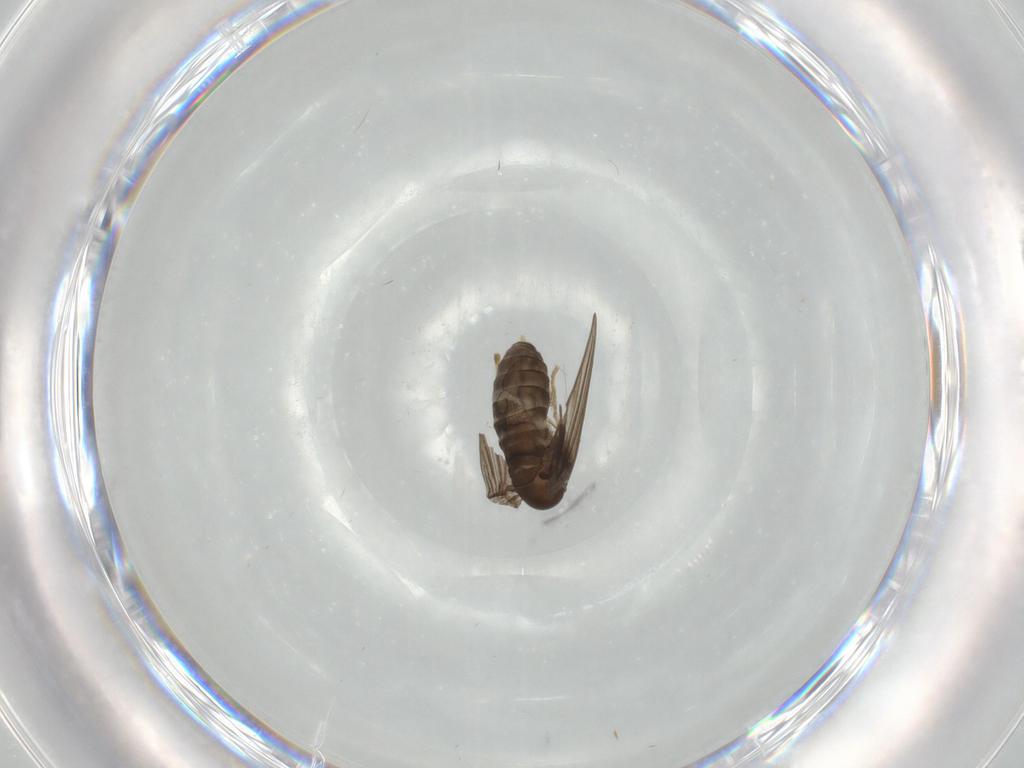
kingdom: Animalia
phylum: Arthropoda
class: Insecta
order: Diptera
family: Psychodidae
